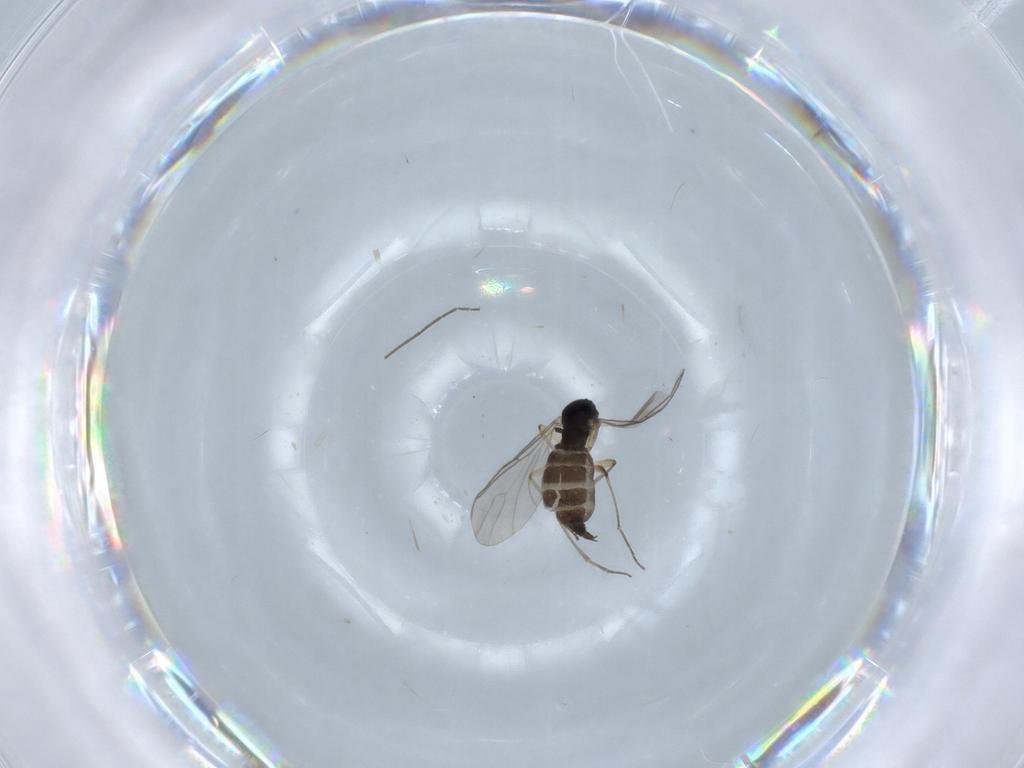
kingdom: Animalia
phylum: Arthropoda
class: Insecta
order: Diptera
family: Sciaridae
